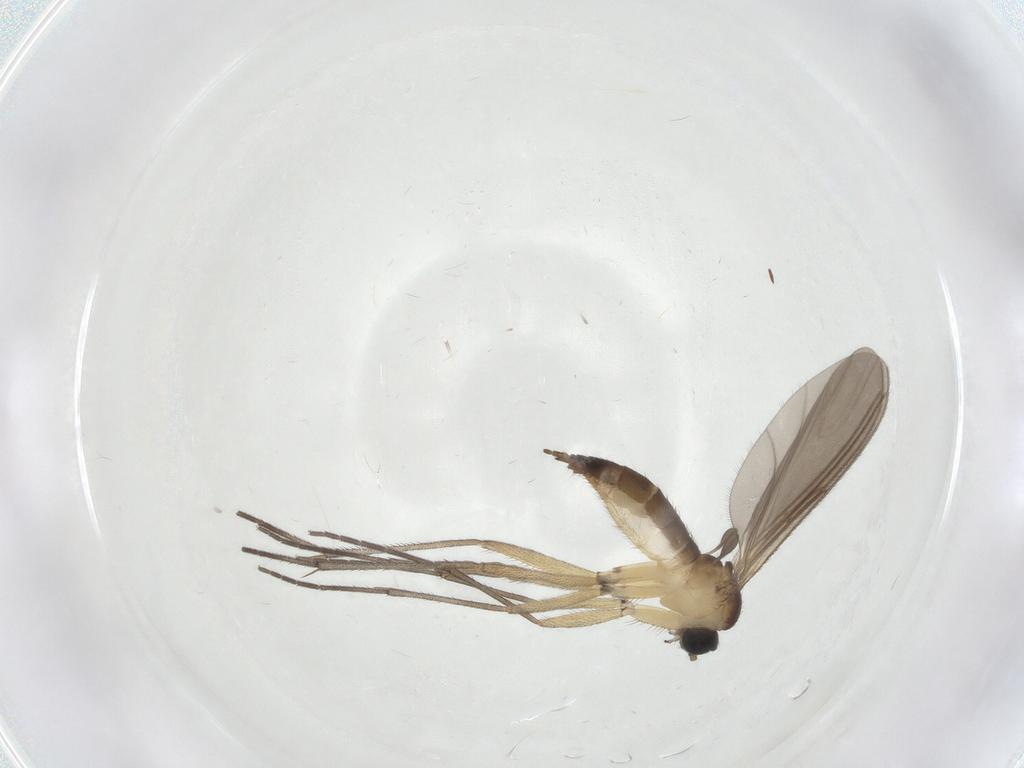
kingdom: Animalia
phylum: Arthropoda
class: Insecta
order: Diptera
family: Sciaridae
